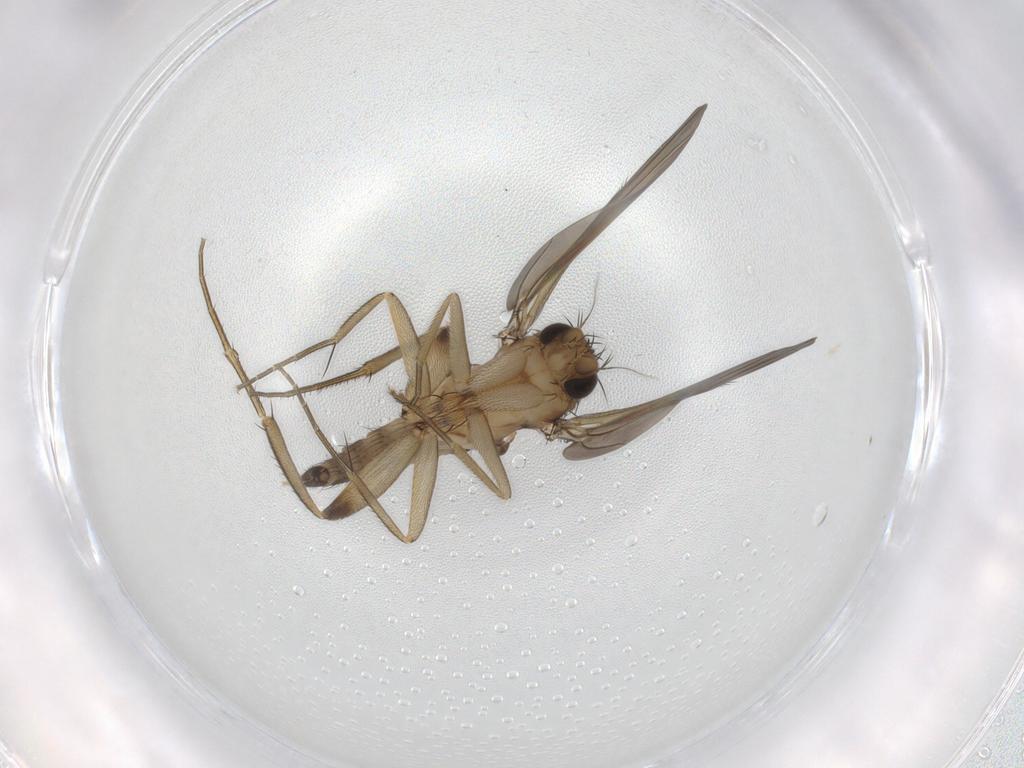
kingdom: Animalia
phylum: Arthropoda
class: Insecta
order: Diptera
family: Phoridae
